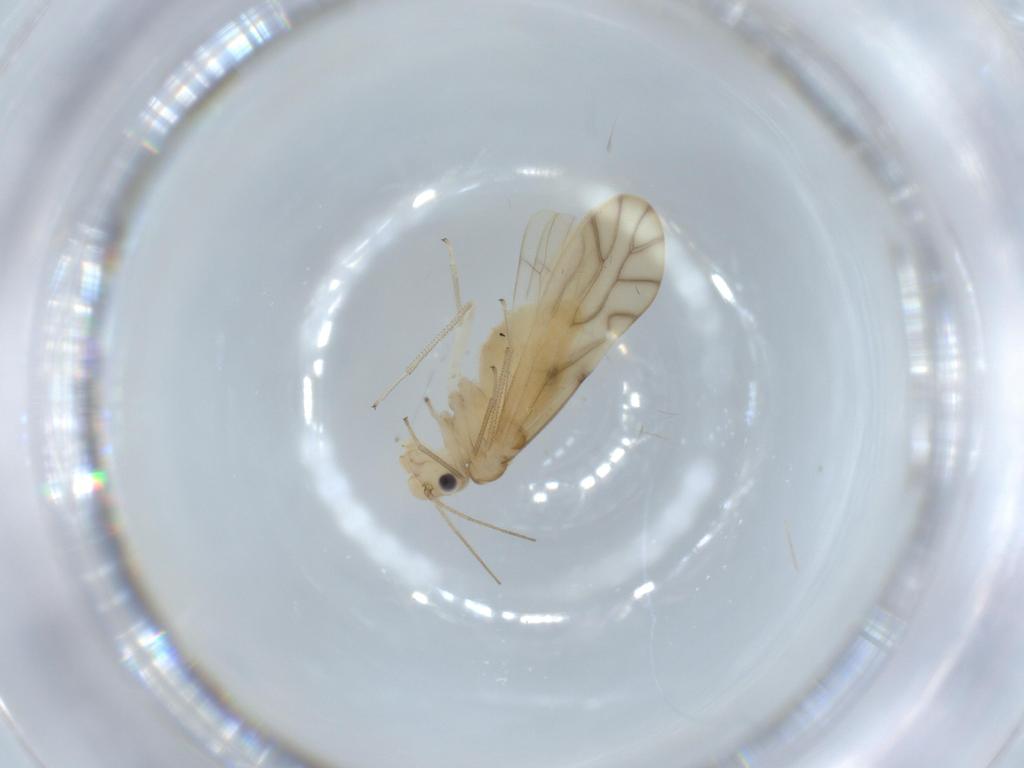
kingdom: Animalia
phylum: Arthropoda
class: Insecta
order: Psocodea
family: Caeciliusidae
